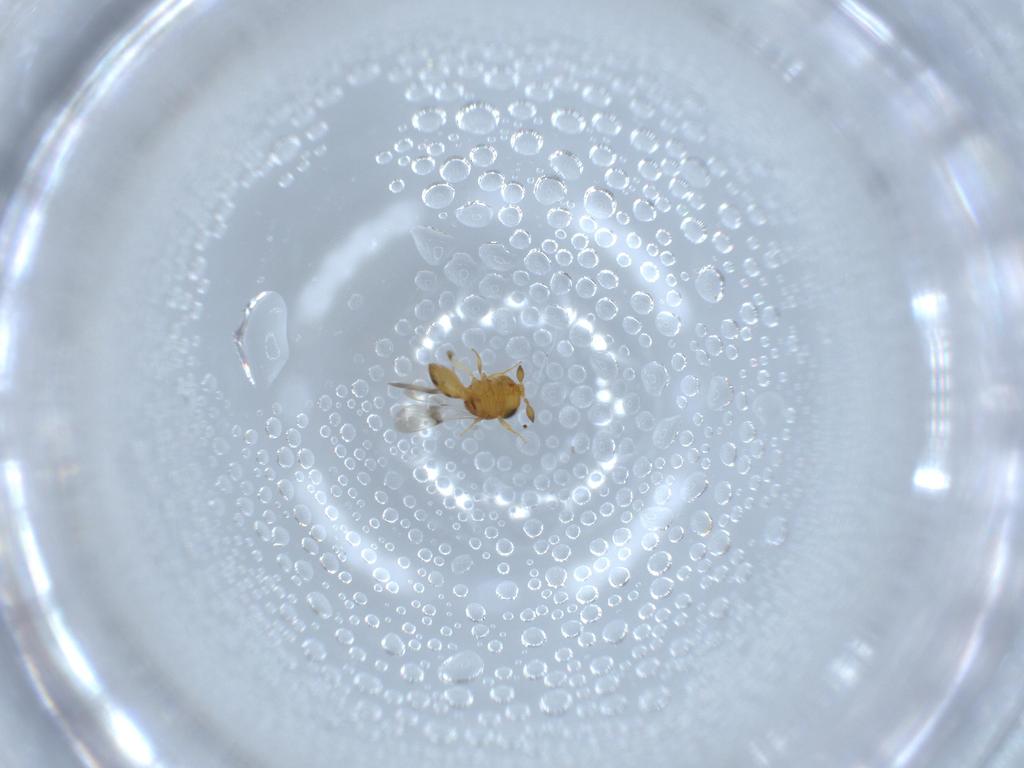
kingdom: Animalia
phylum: Arthropoda
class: Insecta
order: Hymenoptera
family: Scelionidae
